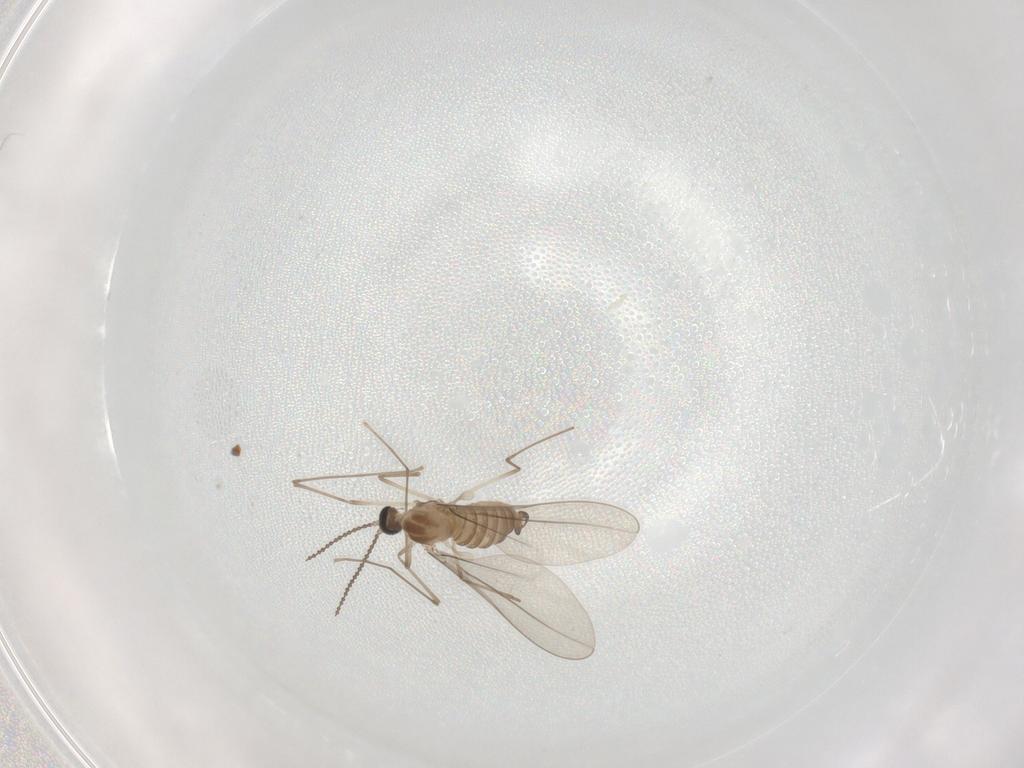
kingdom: Animalia
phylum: Arthropoda
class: Insecta
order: Diptera
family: Cecidomyiidae
